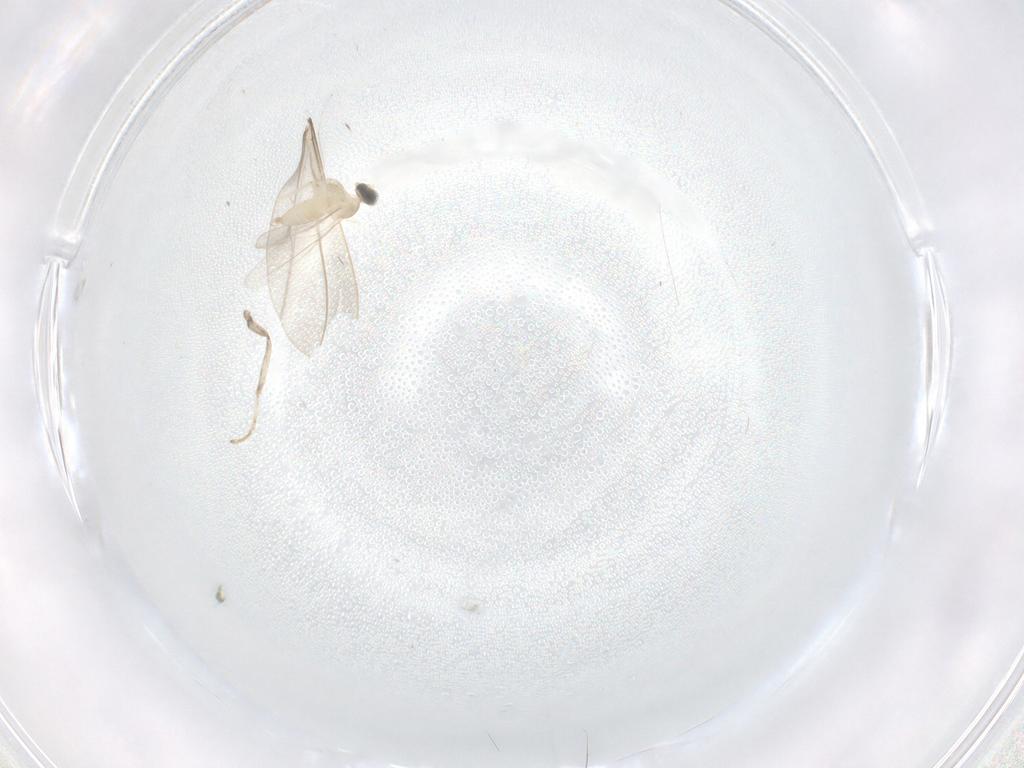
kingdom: Animalia
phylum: Arthropoda
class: Insecta
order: Diptera
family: Cecidomyiidae
